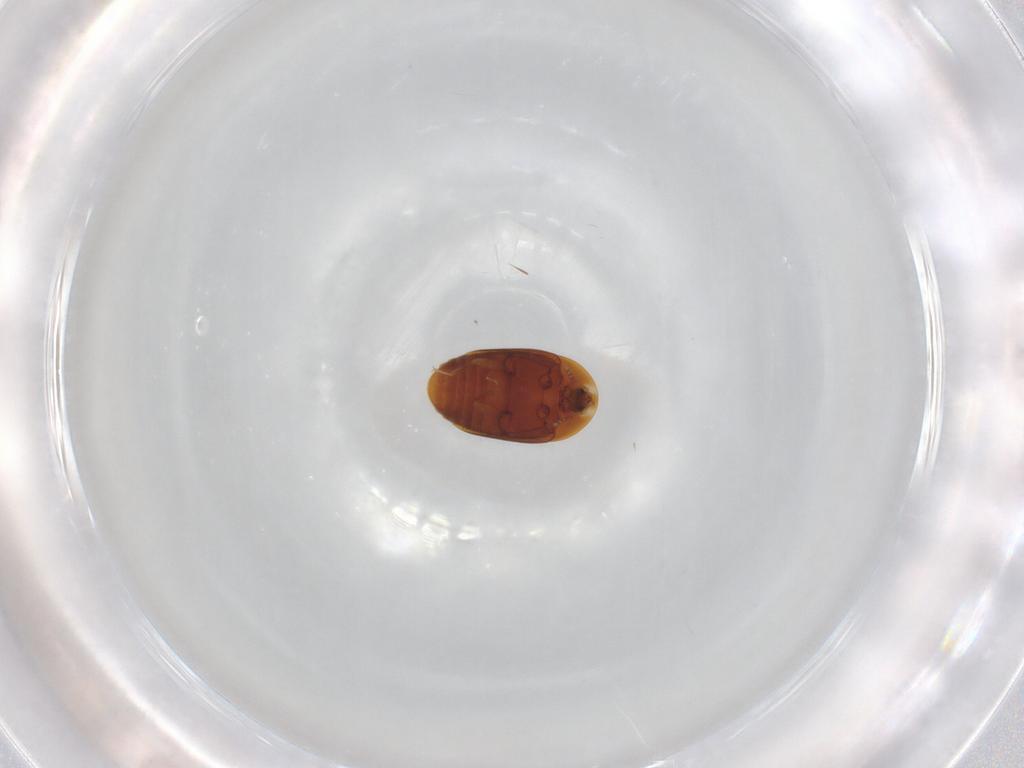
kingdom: Animalia
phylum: Arthropoda
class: Insecta
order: Coleoptera
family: Corylophidae
